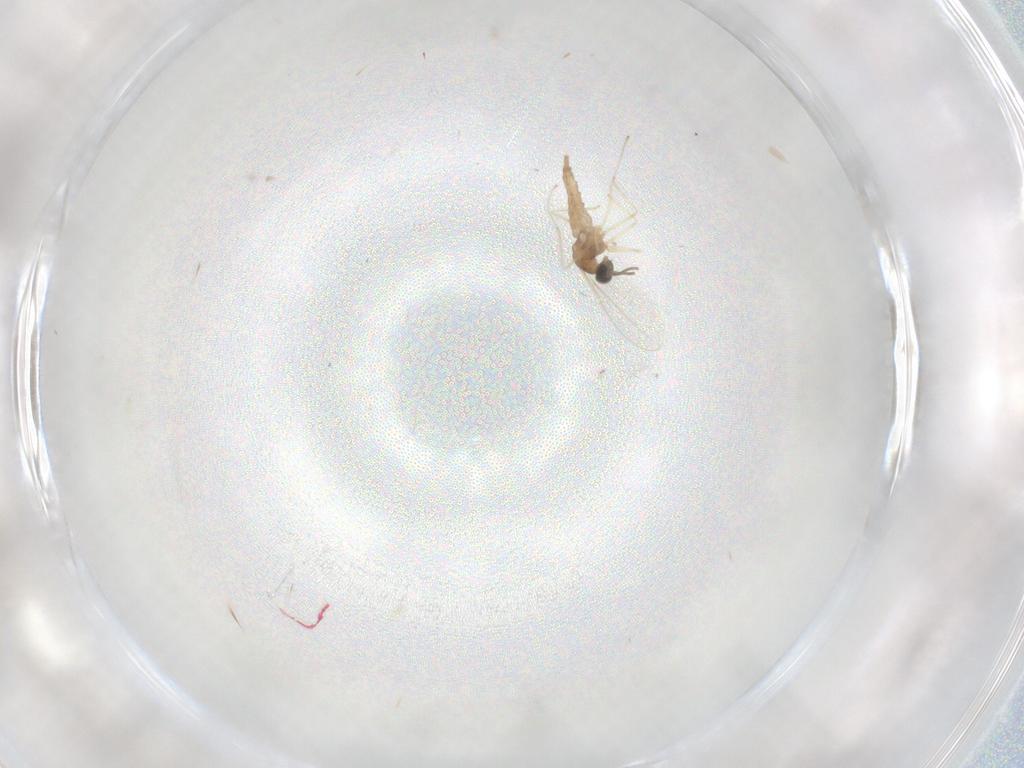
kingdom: Animalia
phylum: Arthropoda
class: Insecta
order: Diptera
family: Cecidomyiidae
